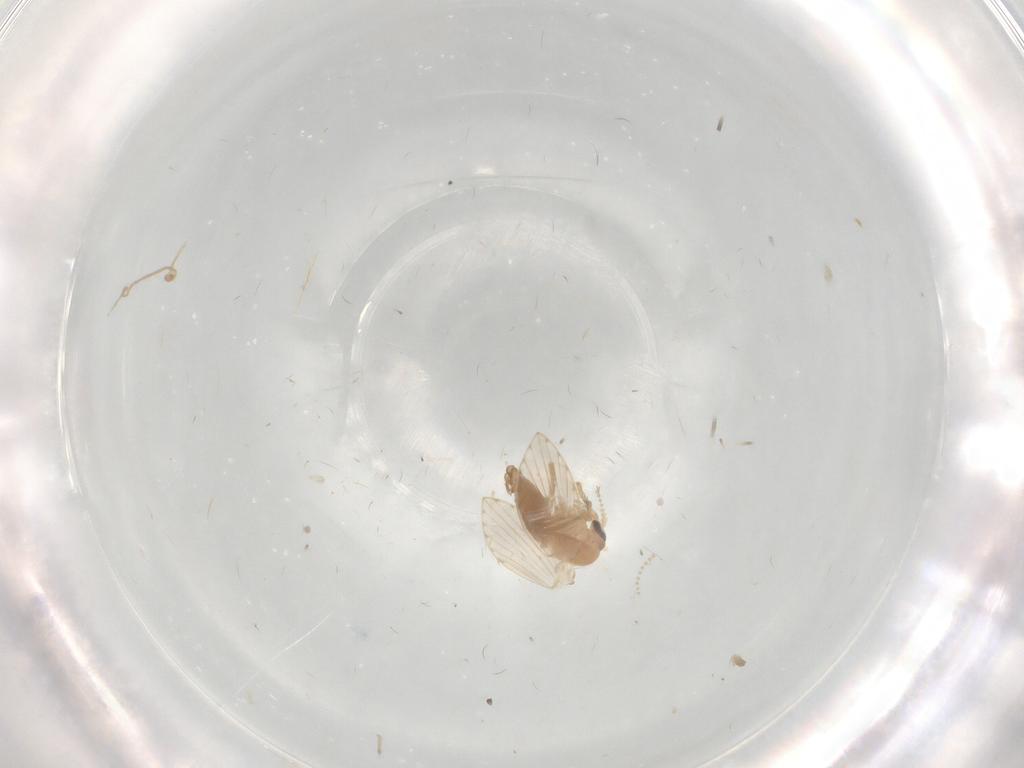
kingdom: Animalia
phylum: Arthropoda
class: Insecta
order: Diptera
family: Psychodidae
